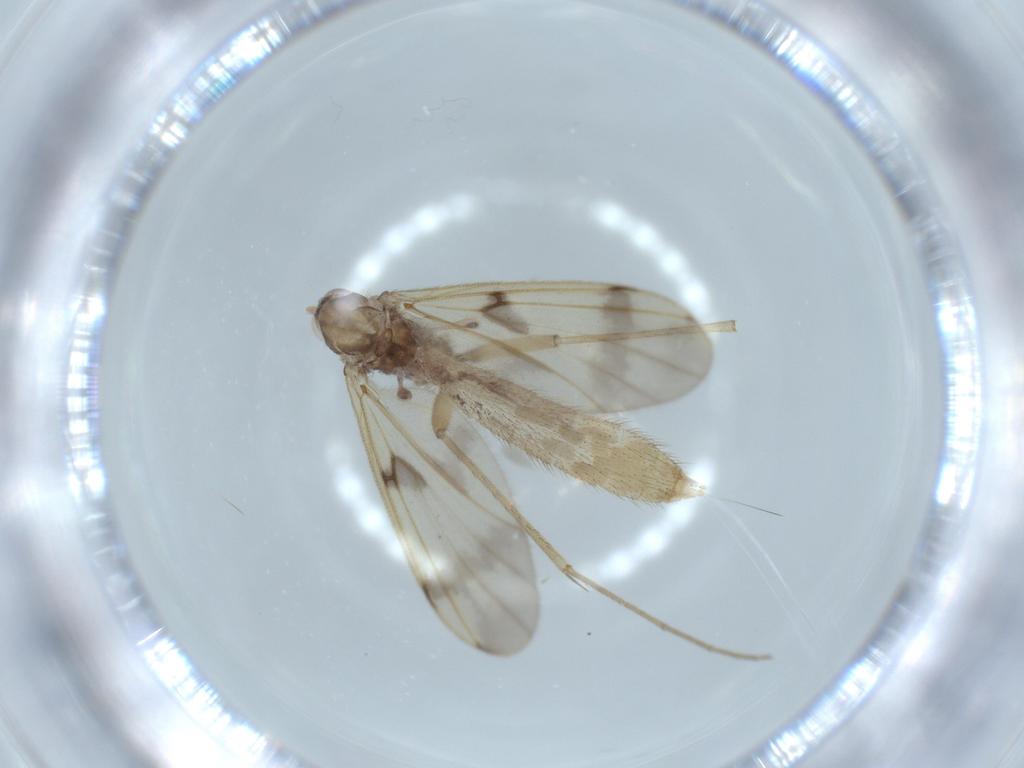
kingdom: Animalia
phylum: Arthropoda
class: Insecta
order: Diptera
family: Mycetophilidae
